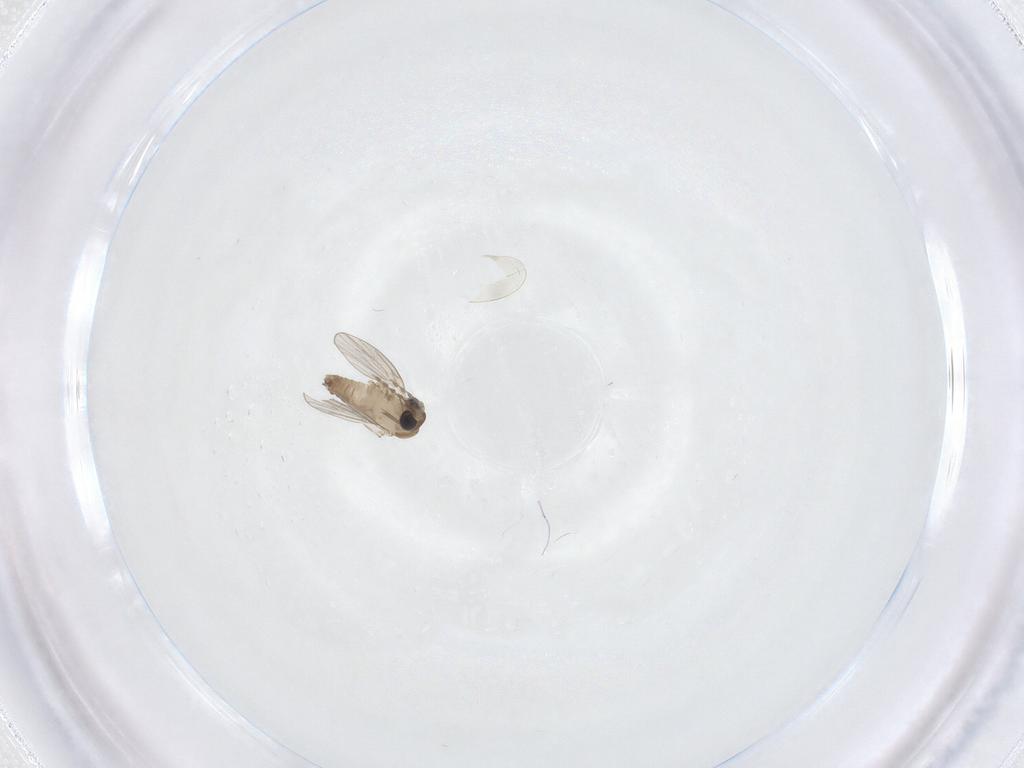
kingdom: Animalia
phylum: Arthropoda
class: Insecta
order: Diptera
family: Psychodidae
